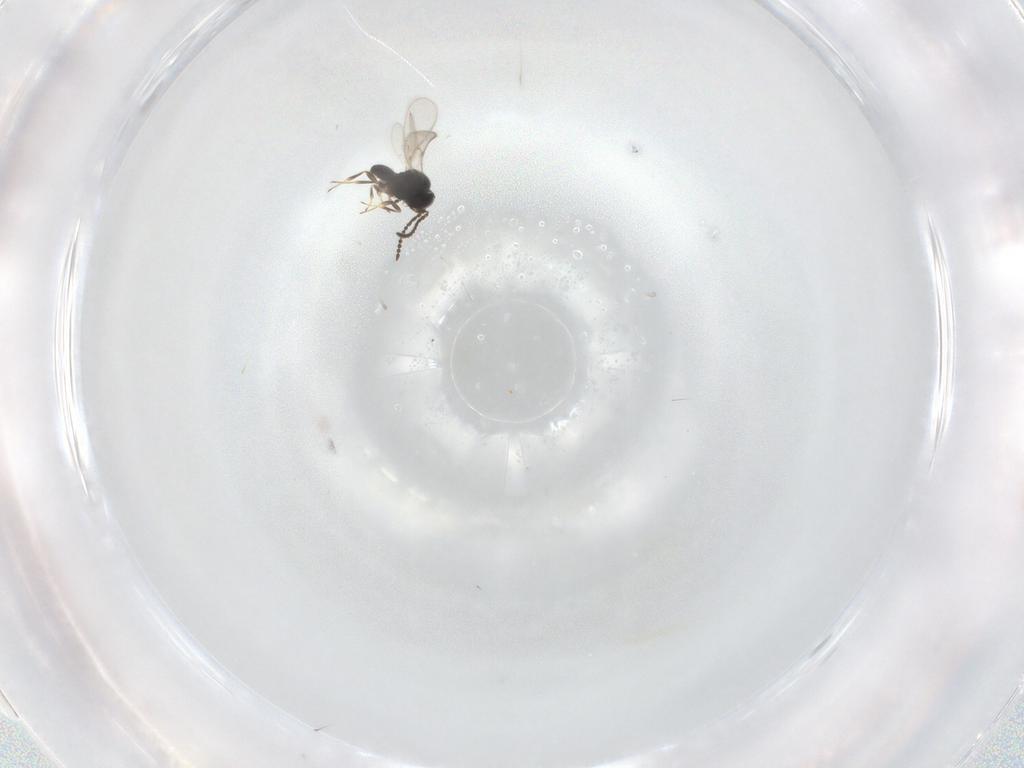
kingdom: Animalia
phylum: Arthropoda
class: Insecta
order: Hymenoptera
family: Scelionidae
